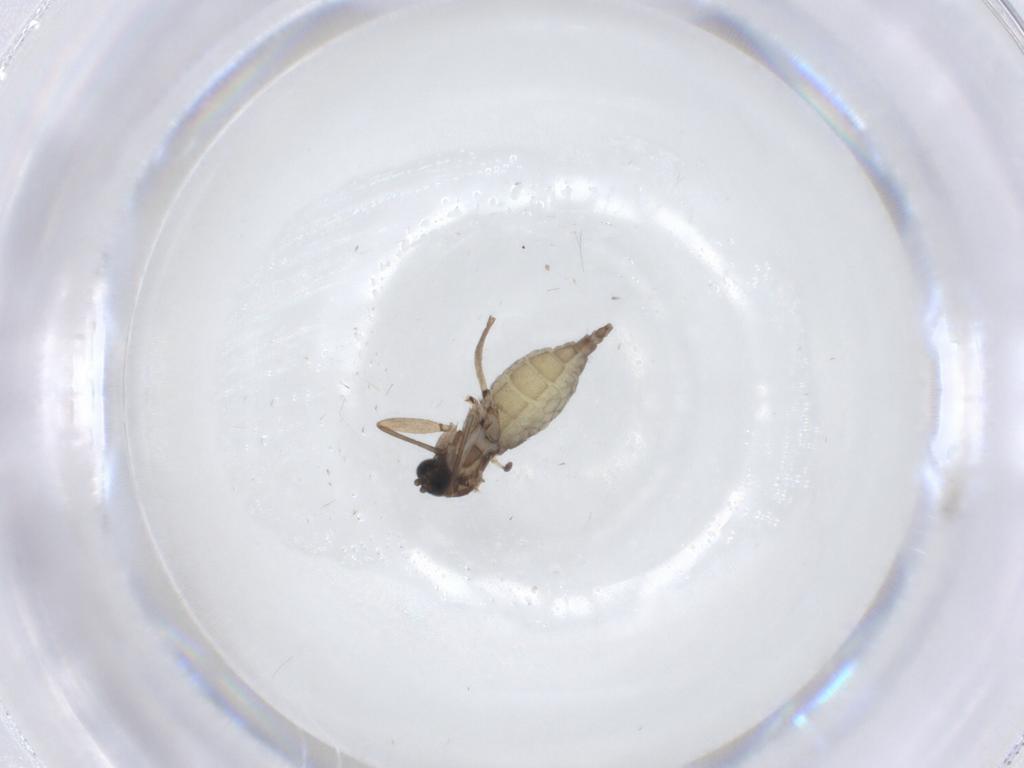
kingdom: Animalia
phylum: Arthropoda
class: Insecta
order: Diptera
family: Sciaridae
